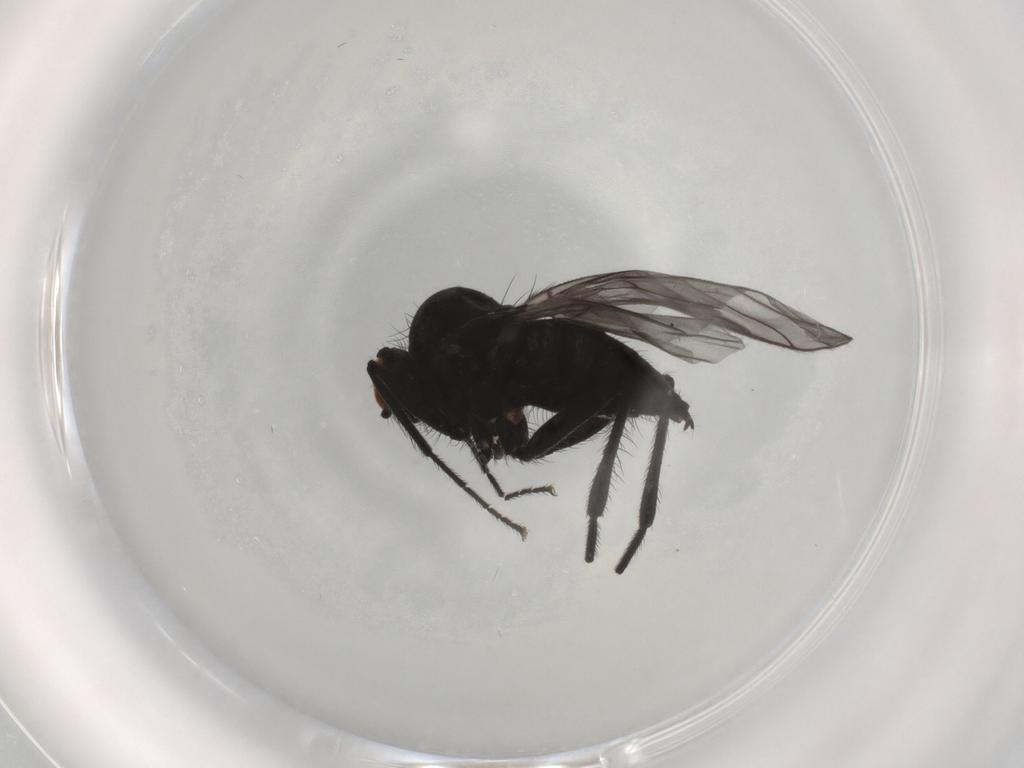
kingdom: Animalia
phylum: Arthropoda
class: Insecta
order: Diptera
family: Hybotidae
